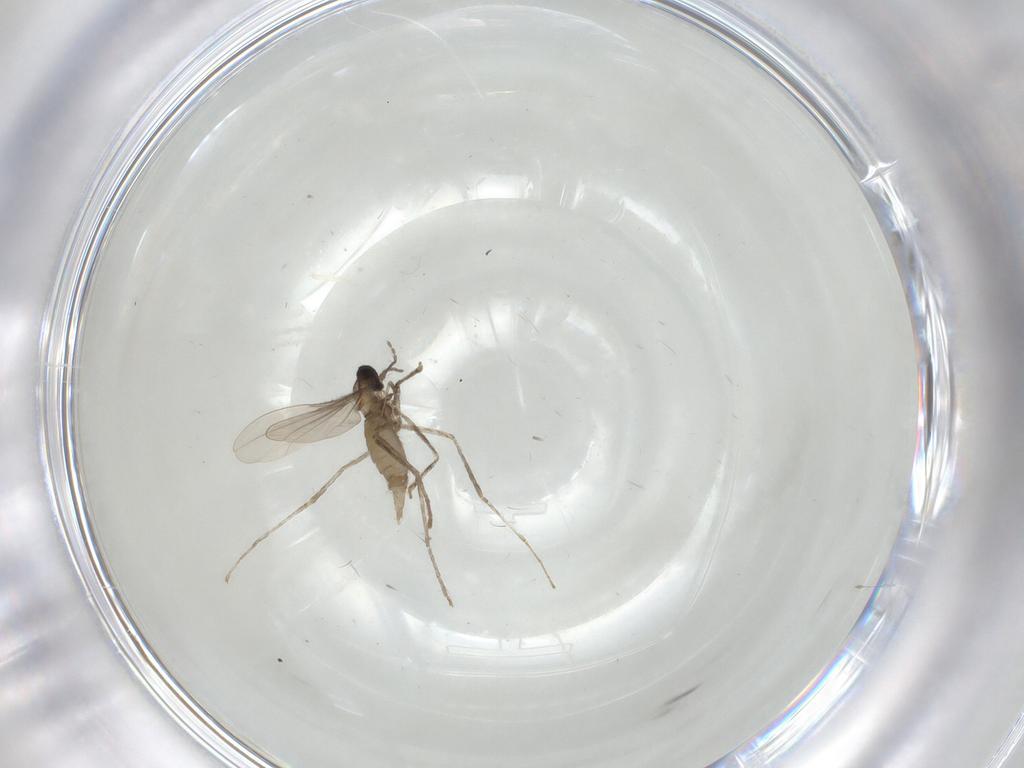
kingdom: Animalia
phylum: Arthropoda
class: Insecta
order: Diptera
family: Cecidomyiidae
